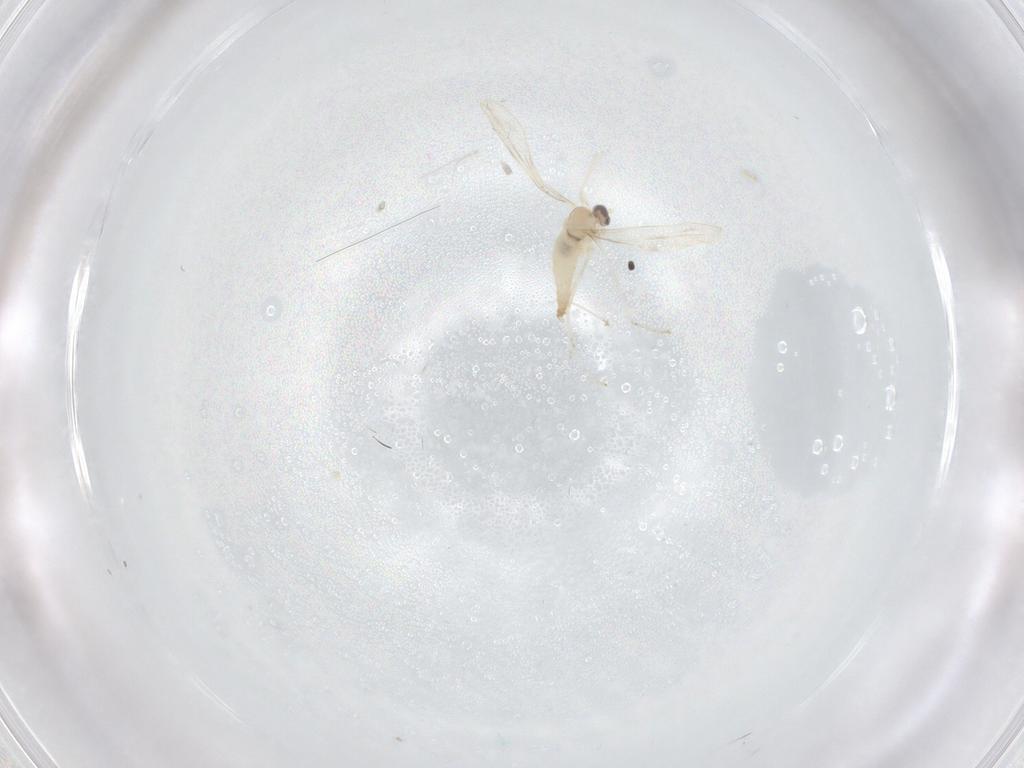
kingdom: Animalia
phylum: Arthropoda
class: Insecta
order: Diptera
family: Cecidomyiidae
